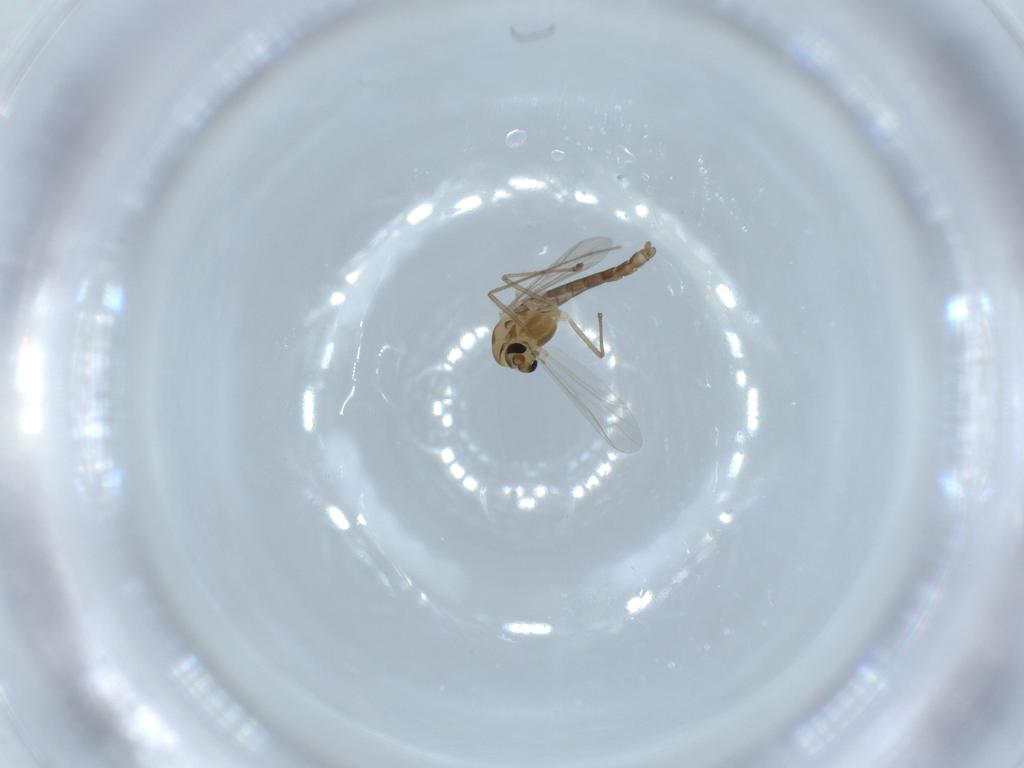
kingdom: Animalia
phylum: Arthropoda
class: Insecta
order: Diptera
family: Chironomidae
